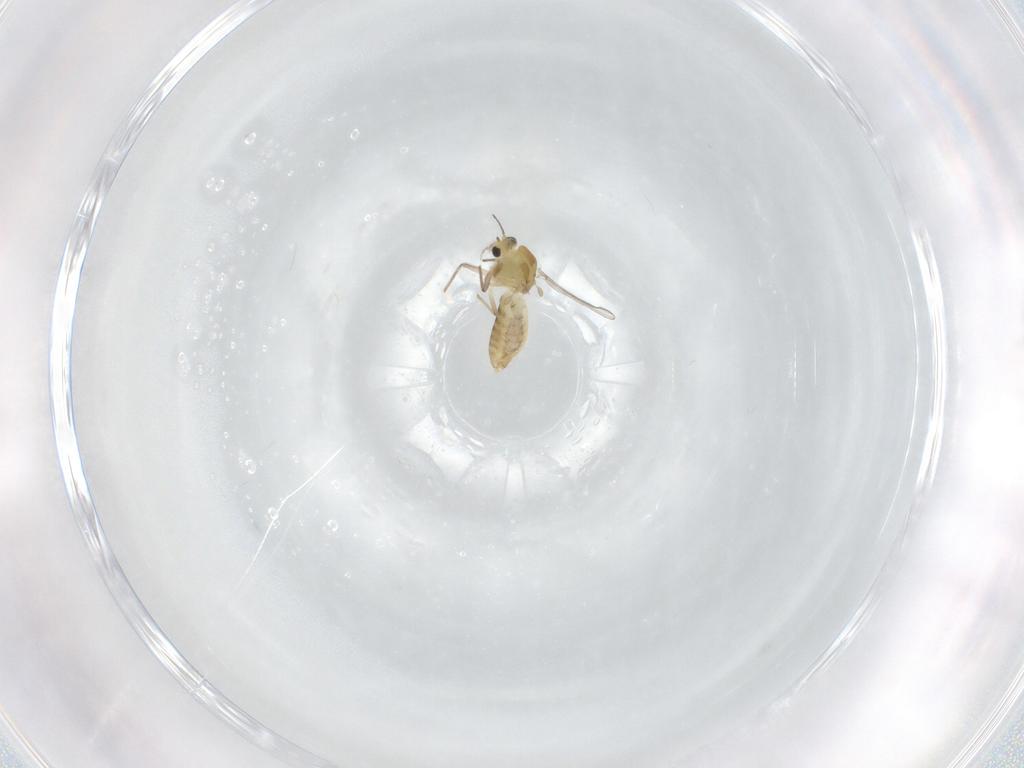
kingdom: Animalia
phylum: Arthropoda
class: Insecta
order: Diptera
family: Chironomidae
